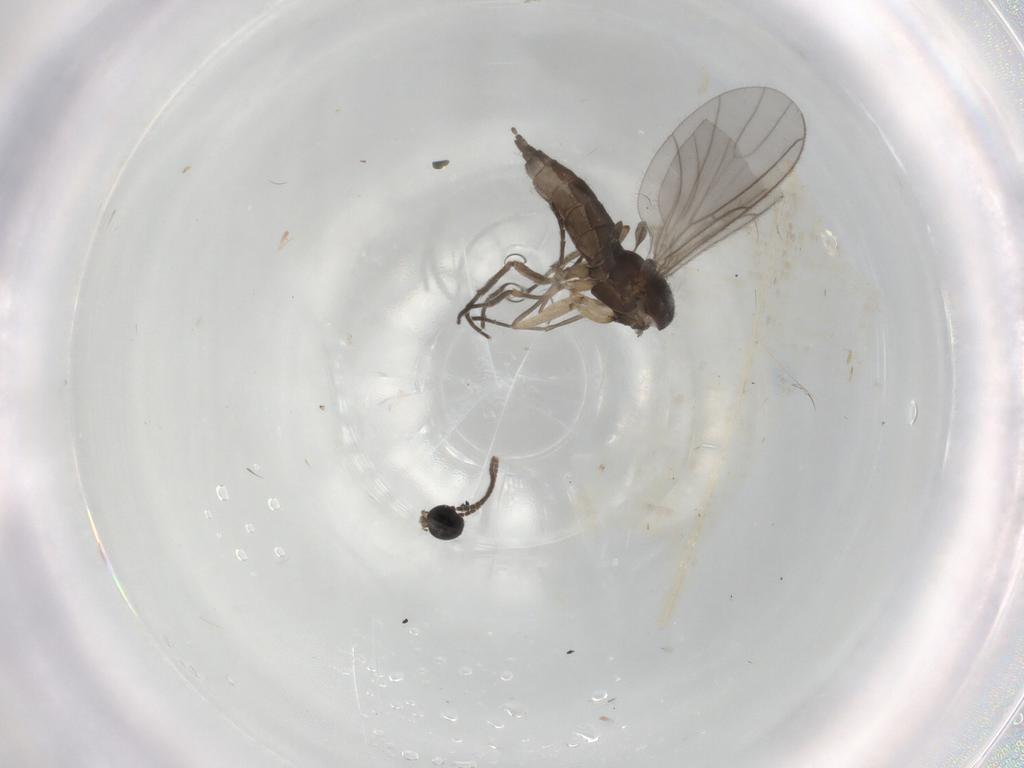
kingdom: Animalia
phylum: Arthropoda
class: Insecta
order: Diptera
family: Sciaridae
